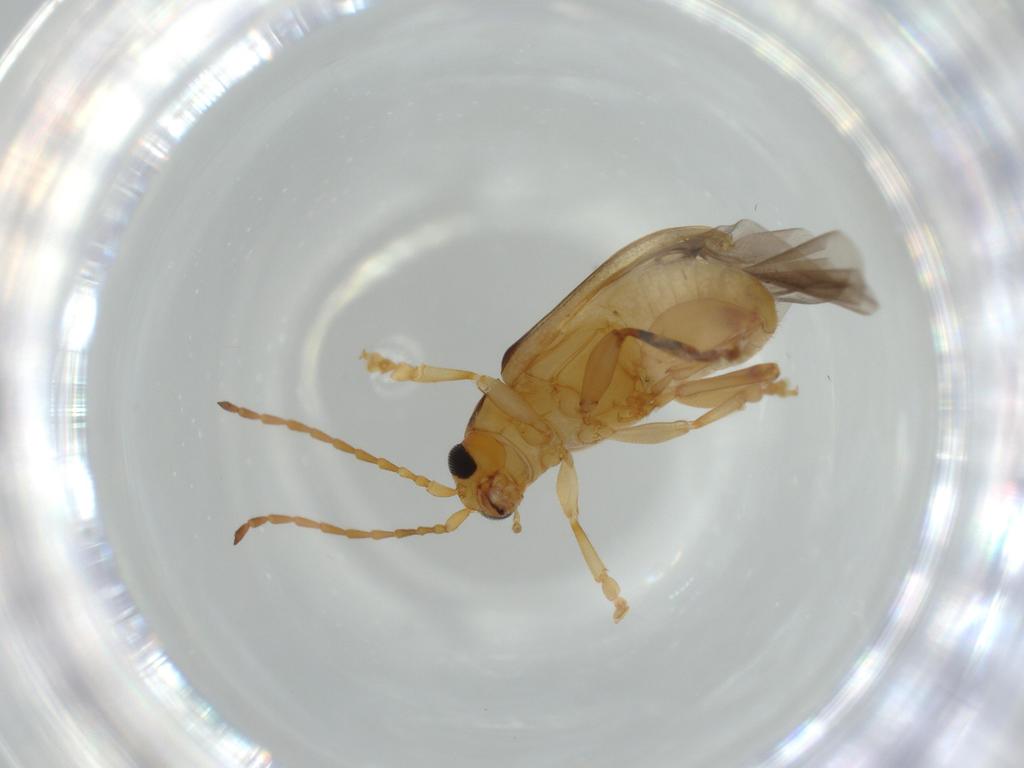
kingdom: Animalia
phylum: Arthropoda
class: Insecta
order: Coleoptera
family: Chrysomelidae
